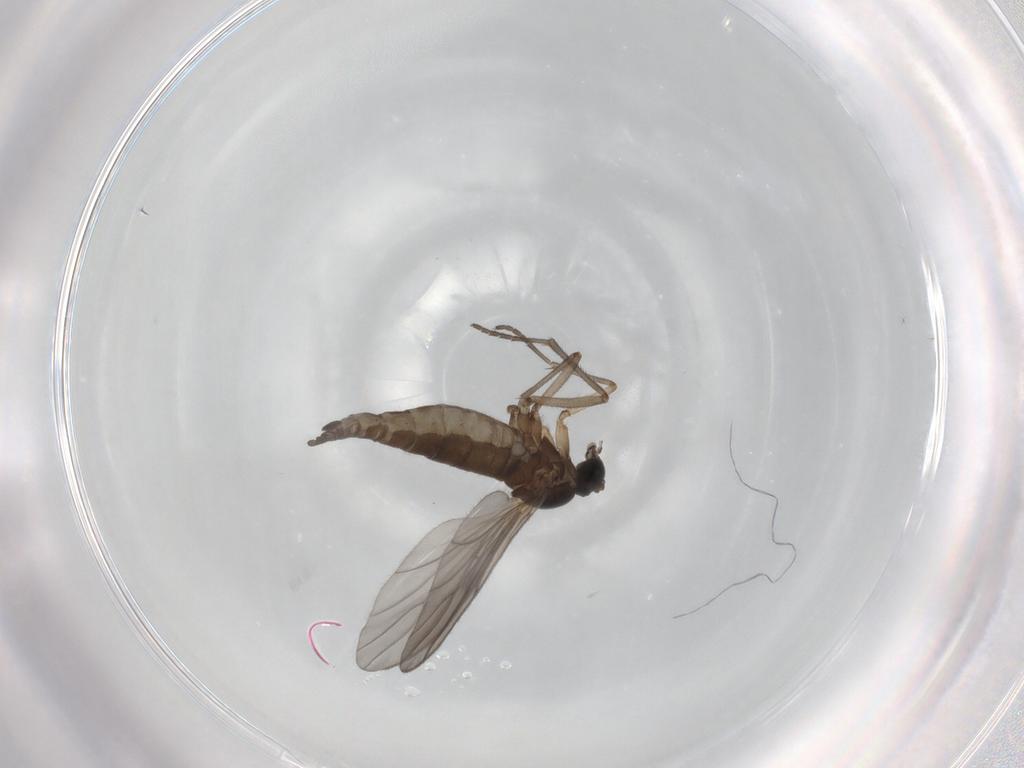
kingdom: Animalia
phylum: Arthropoda
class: Insecta
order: Diptera
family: Sciaridae
